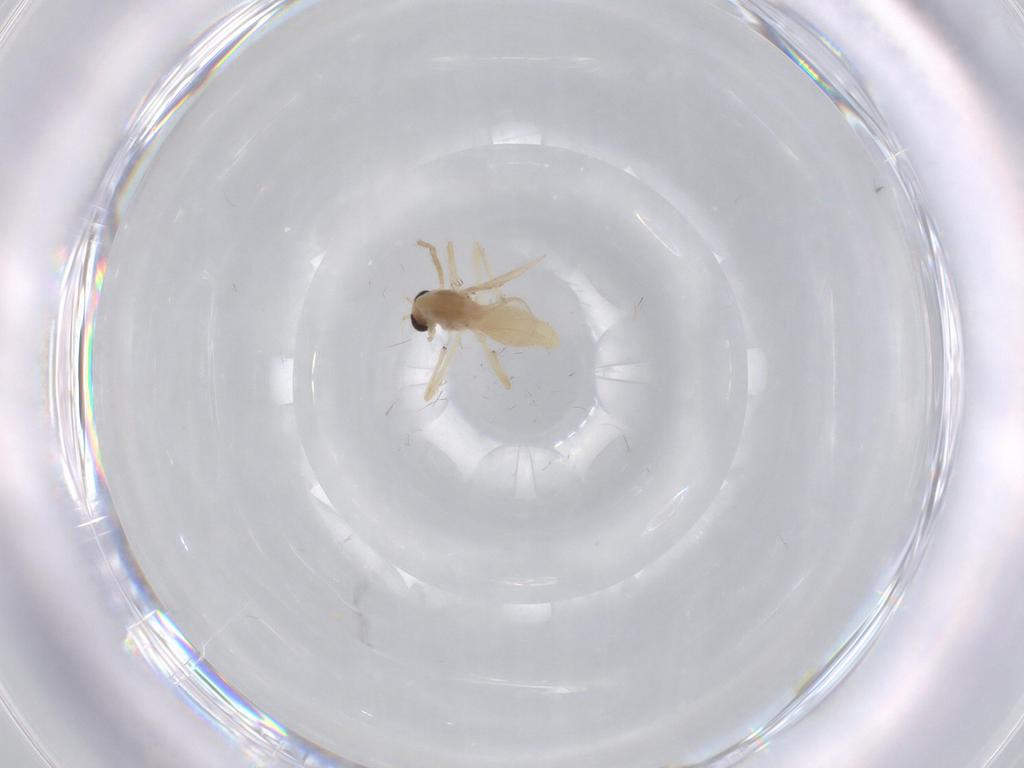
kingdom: Animalia
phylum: Arthropoda
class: Insecta
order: Diptera
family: Chironomidae
